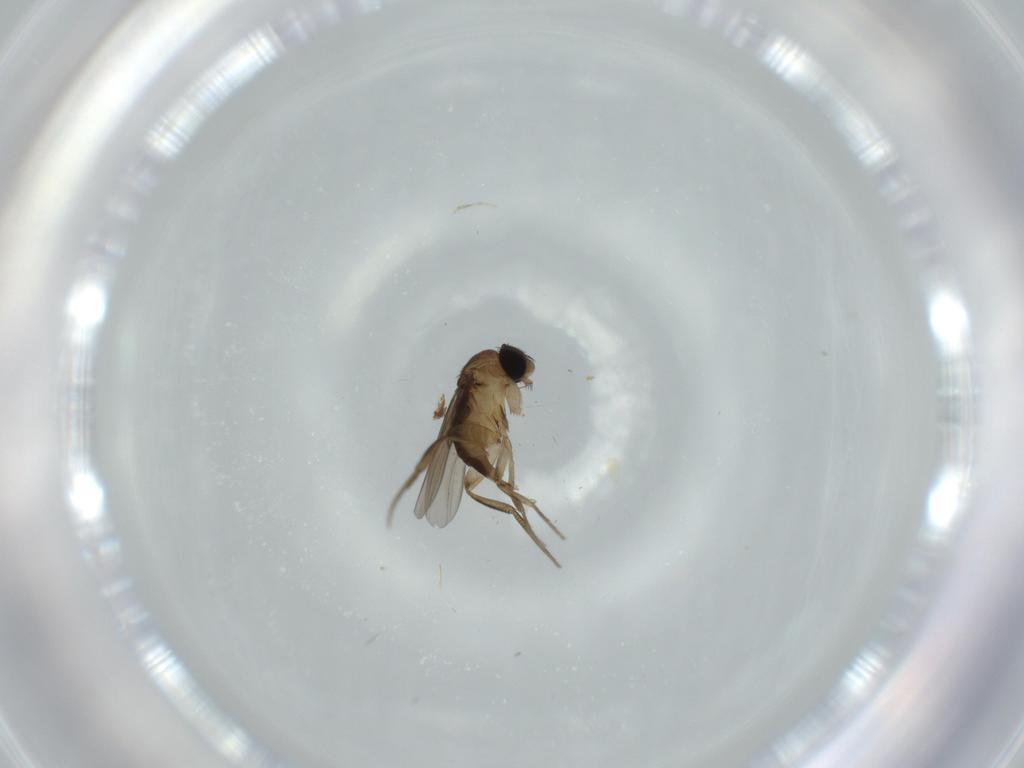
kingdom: Animalia
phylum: Arthropoda
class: Insecta
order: Diptera
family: Phoridae
